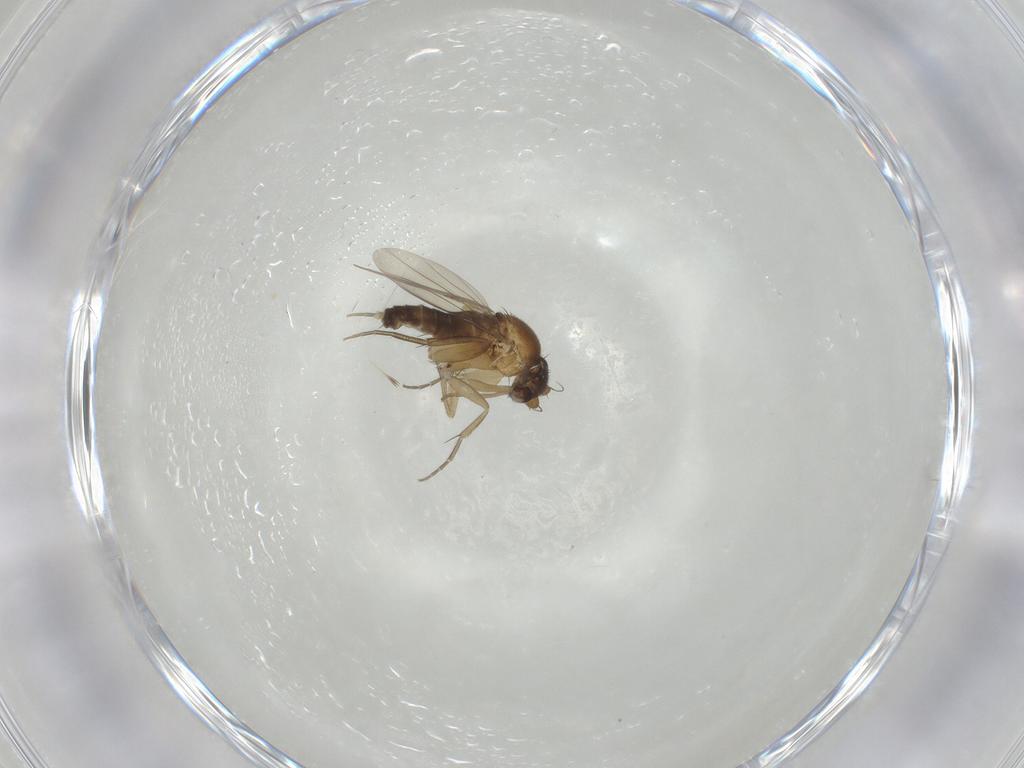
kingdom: Animalia
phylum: Arthropoda
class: Insecta
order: Diptera
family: Phoridae
